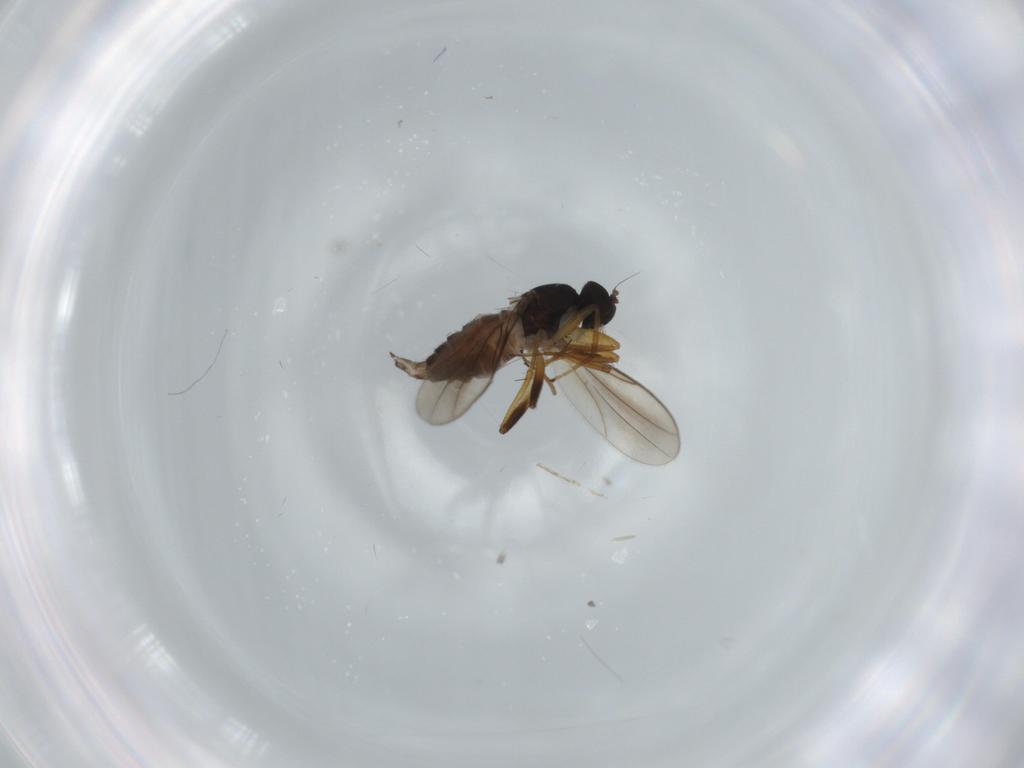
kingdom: Animalia
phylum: Arthropoda
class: Insecta
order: Diptera
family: Hybotidae
